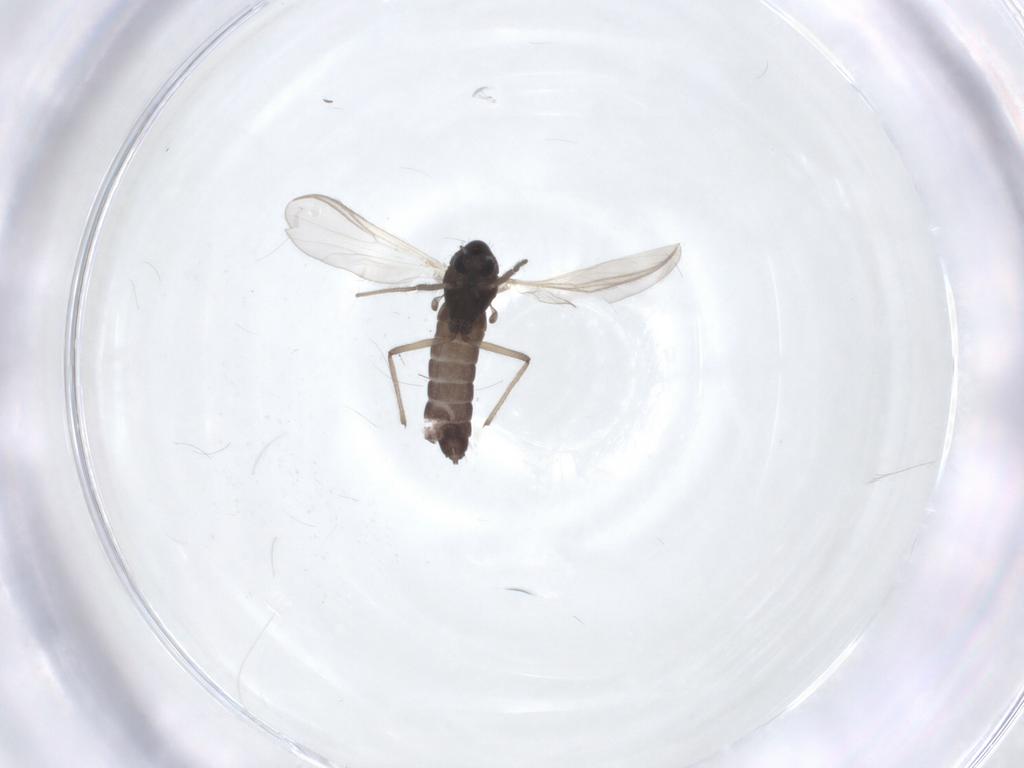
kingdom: Animalia
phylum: Arthropoda
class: Insecta
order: Diptera
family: Chironomidae
